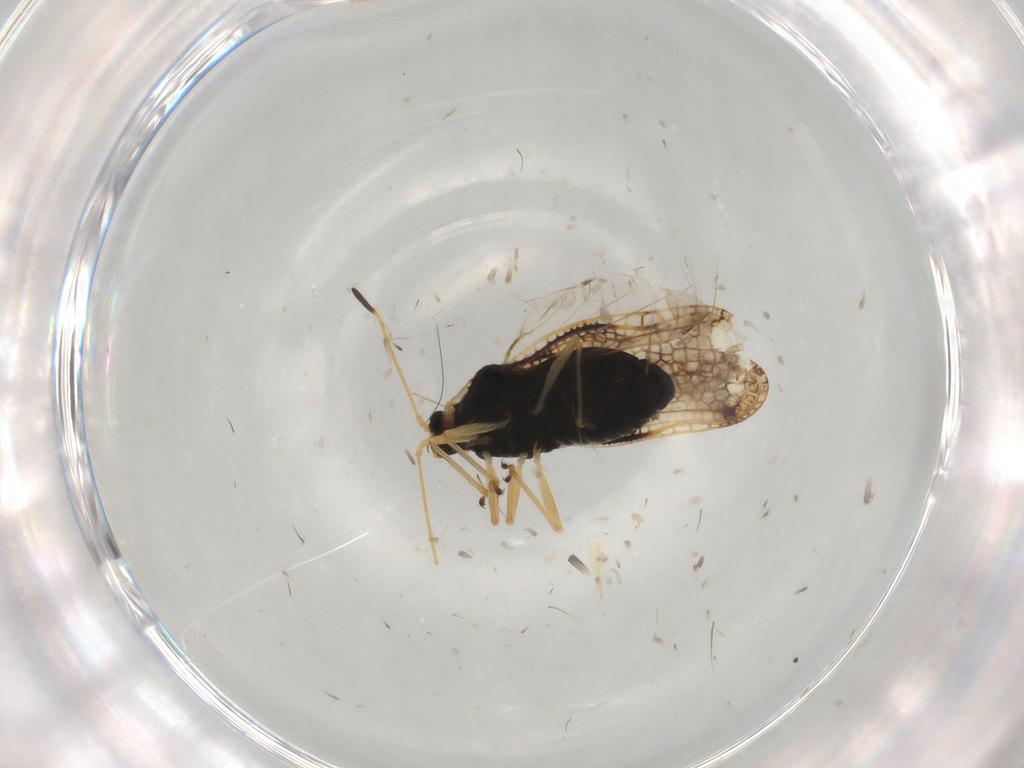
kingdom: Animalia
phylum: Arthropoda
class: Insecta
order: Hemiptera
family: Tingidae
